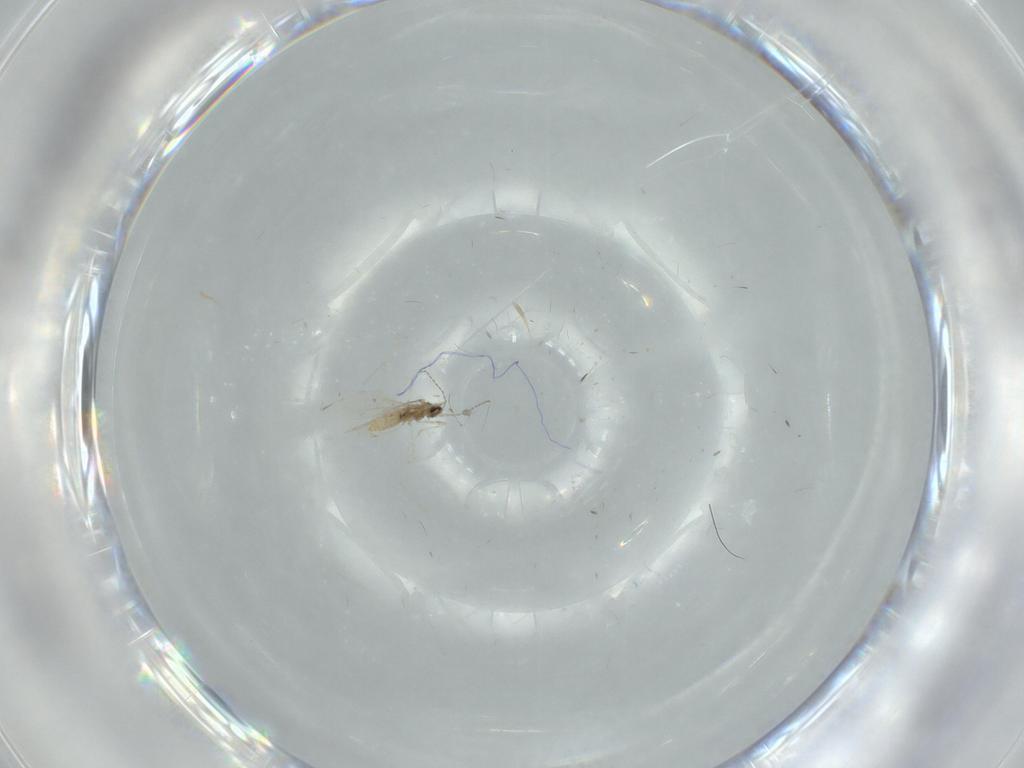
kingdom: Animalia
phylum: Arthropoda
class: Insecta
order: Diptera
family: Cecidomyiidae
